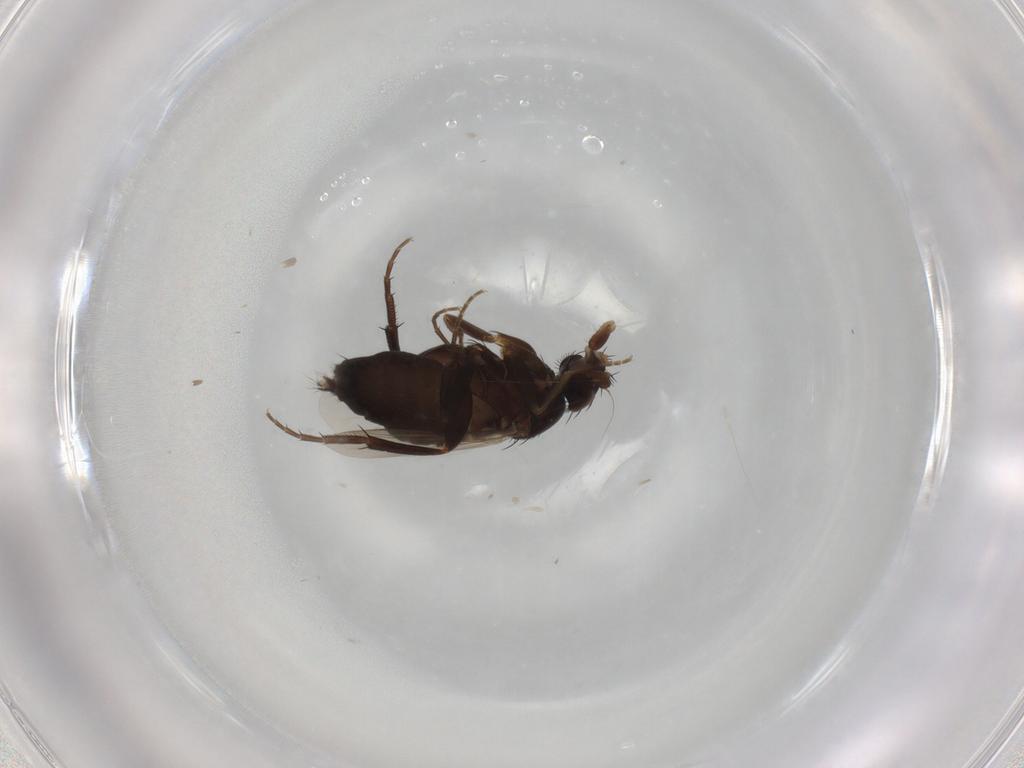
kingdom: Animalia
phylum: Arthropoda
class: Insecta
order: Diptera
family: Phoridae
